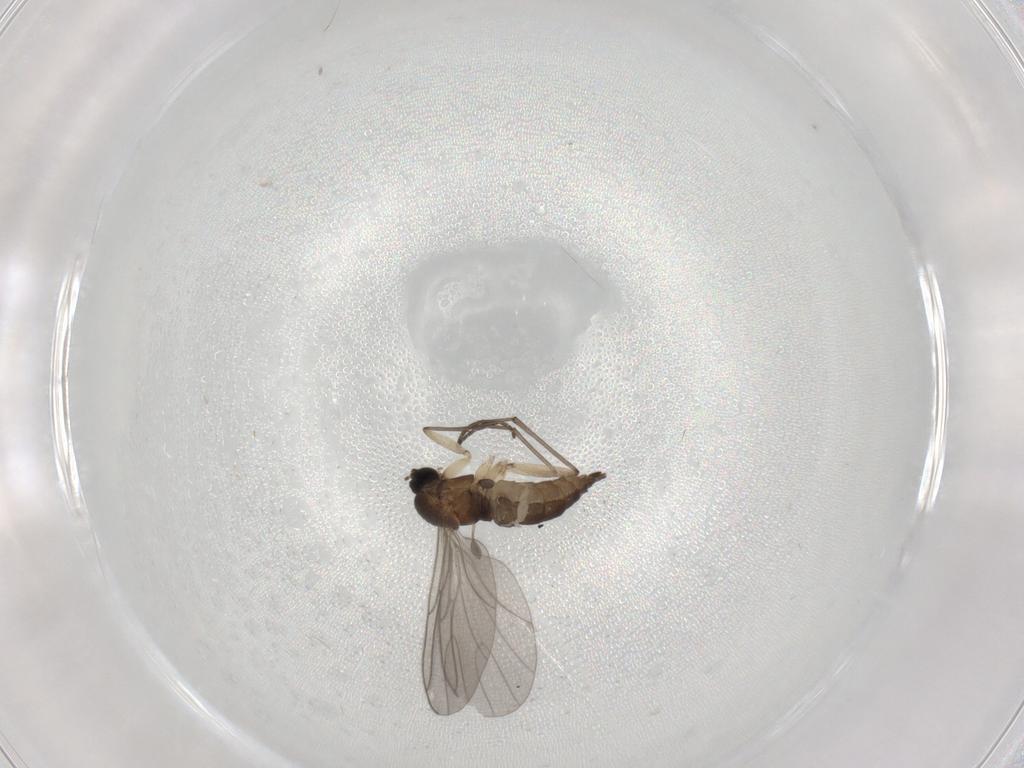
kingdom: Animalia
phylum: Arthropoda
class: Insecta
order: Diptera
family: Sciaridae
